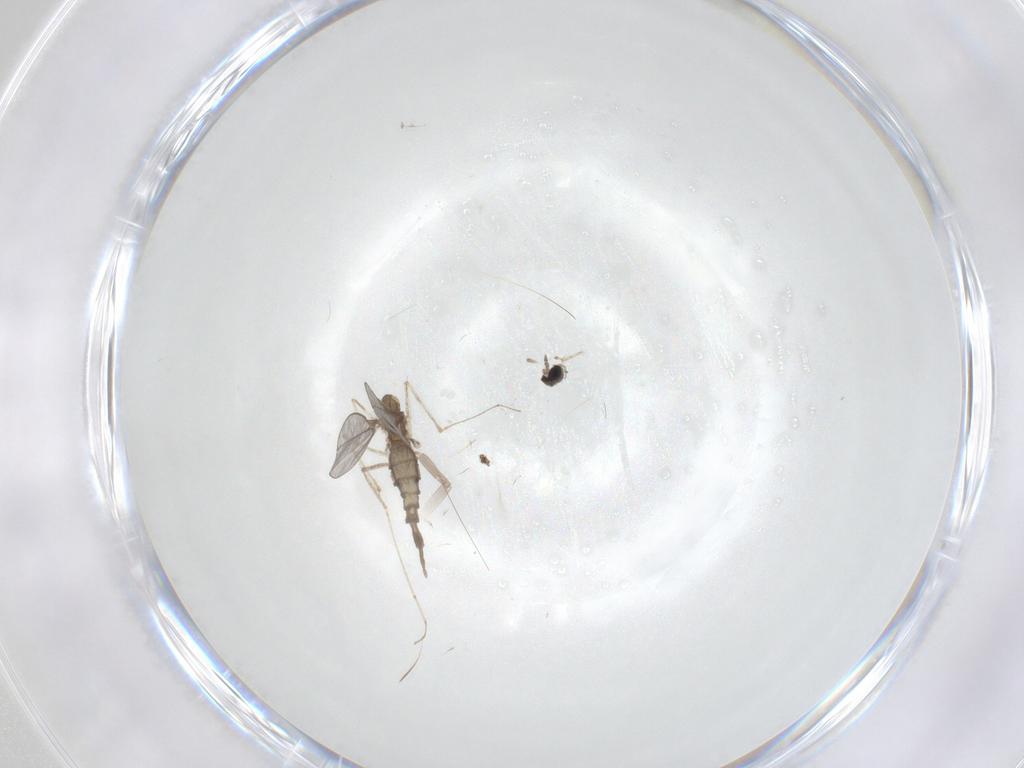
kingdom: Animalia
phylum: Arthropoda
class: Insecta
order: Diptera
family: Cecidomyiidae
